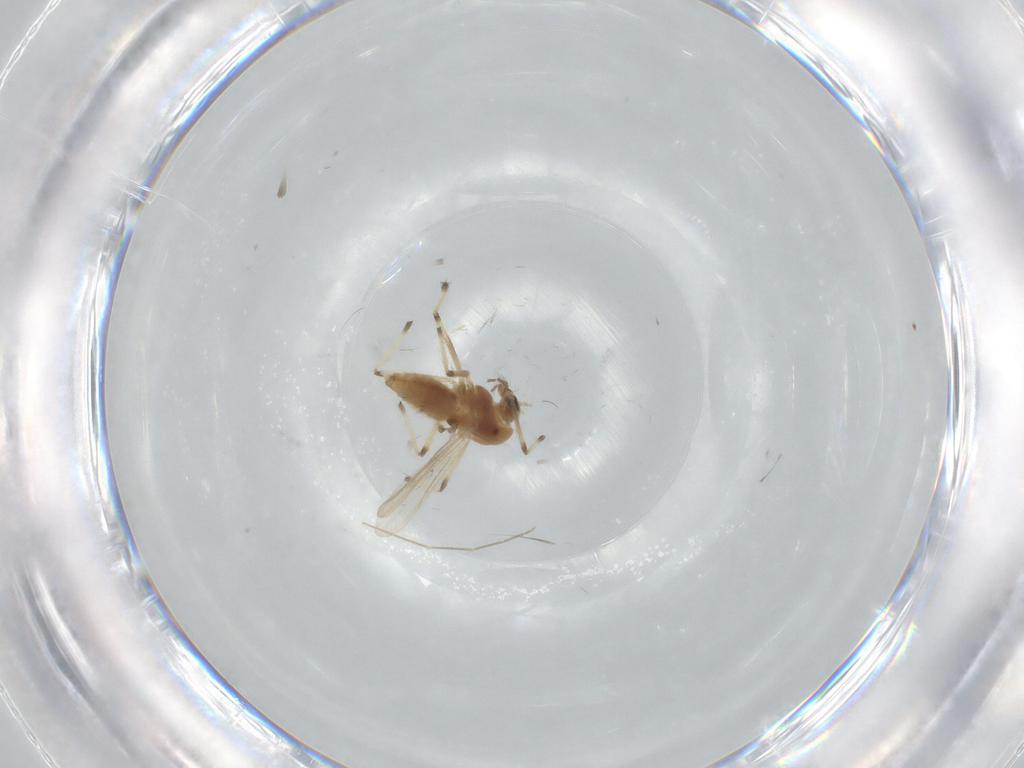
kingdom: Animalia
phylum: Arthropoda
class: Insecta
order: Diptera
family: Chironomidae
